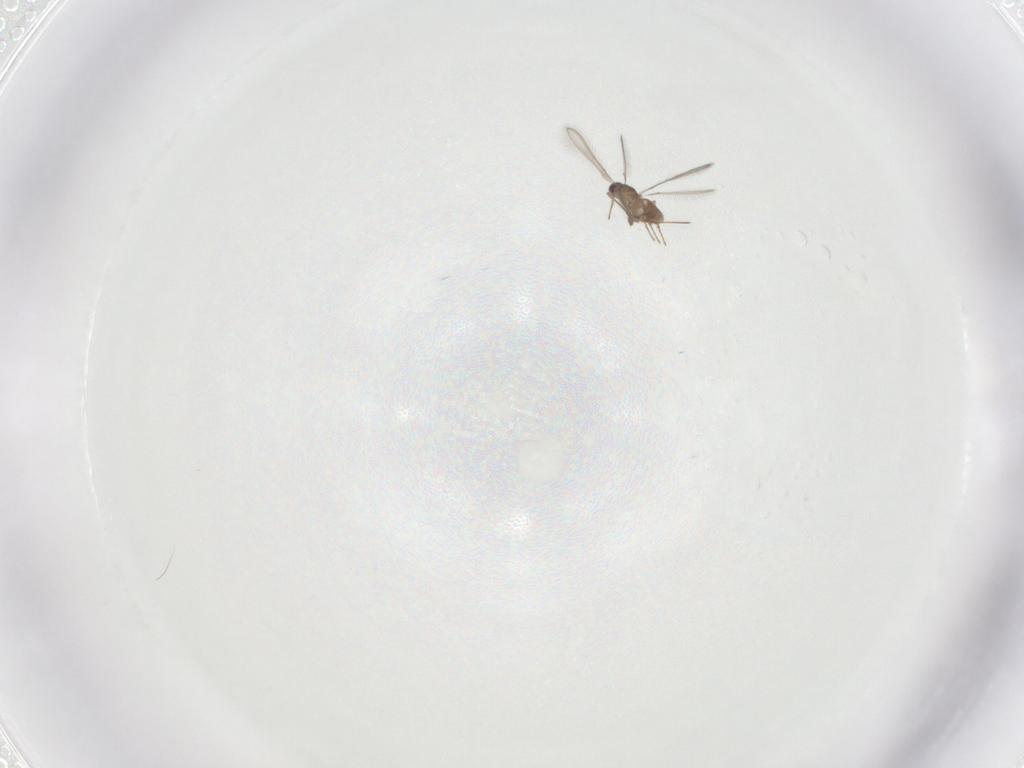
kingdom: Animalia
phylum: Arthropoda
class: Insecta
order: Hymenoptera
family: Mymaridae
